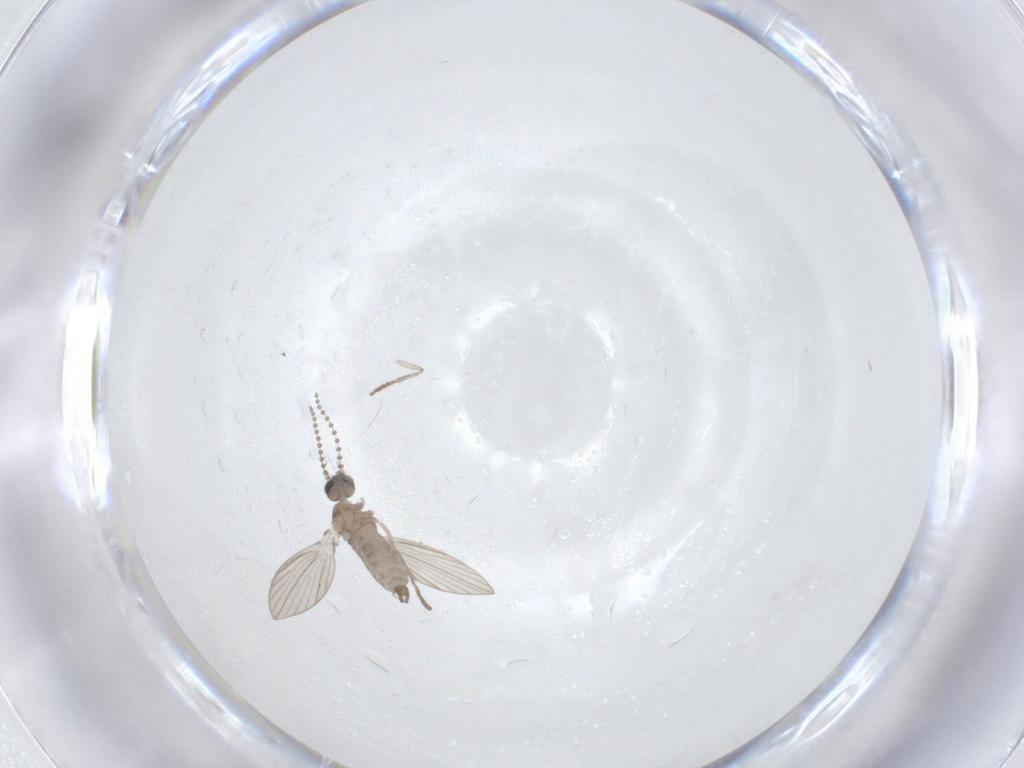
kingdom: Animalia
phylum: Arthropoda
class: Insecta
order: Diptera
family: Psychodidae
